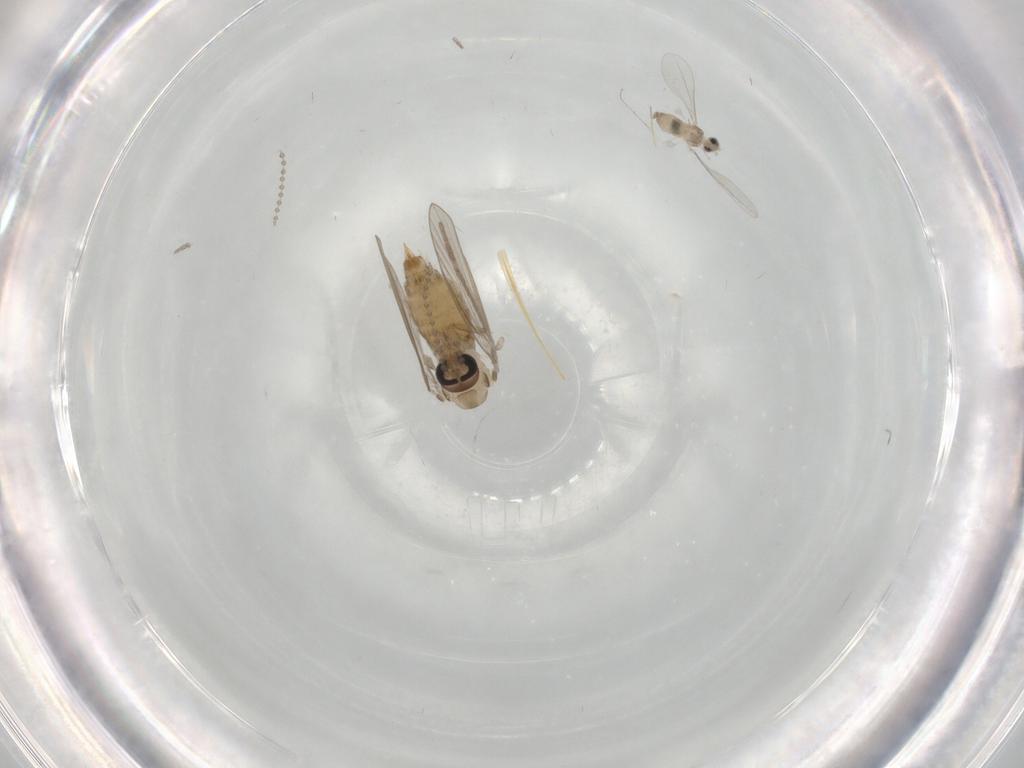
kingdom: Animalia
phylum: Arthropoda
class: Insecta
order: Diptera
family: Psychodidae
